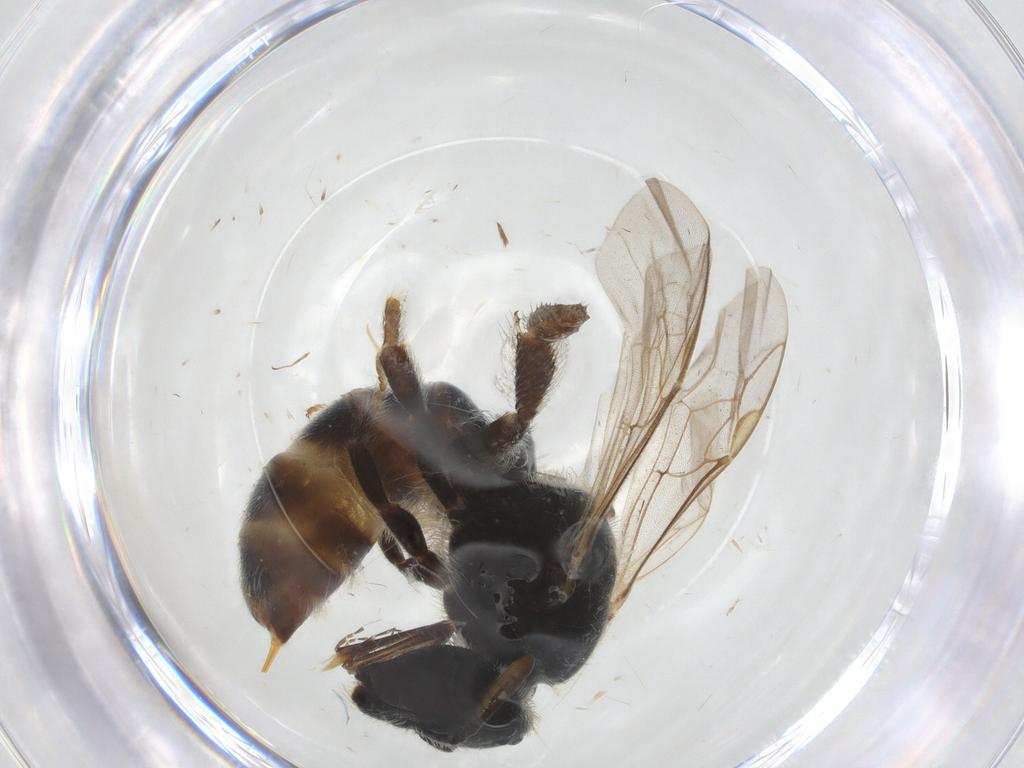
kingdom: Animalia
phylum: Arthropoda
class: Insecta
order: Hymenoptera
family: Halictidae
